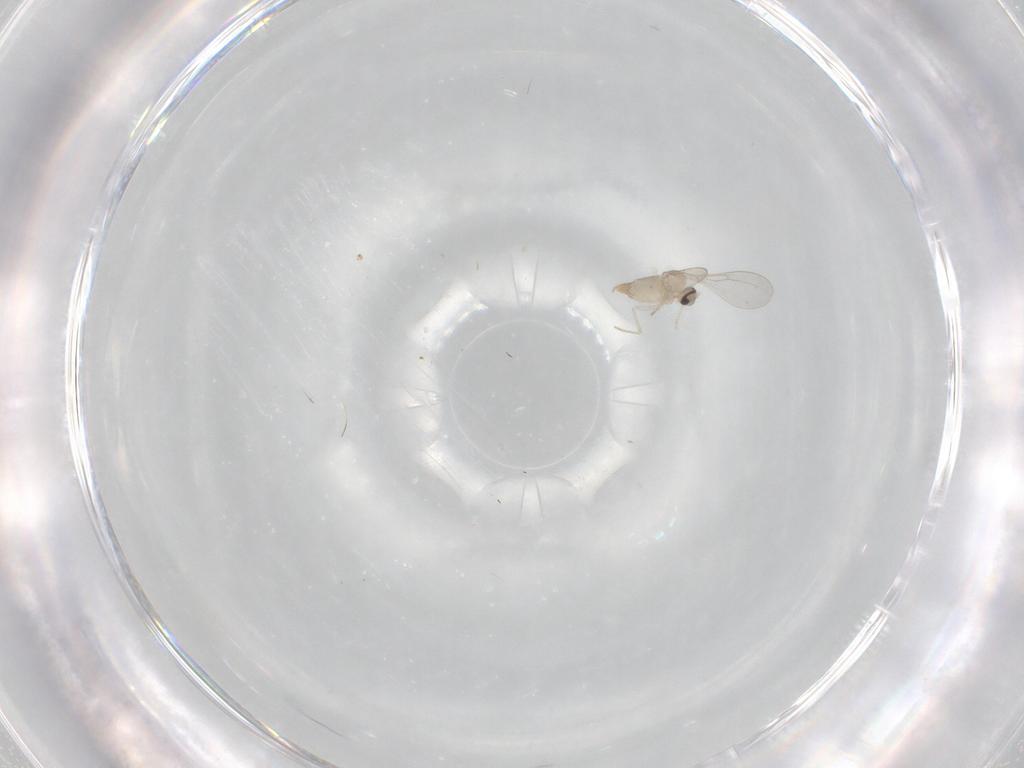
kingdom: Animalia
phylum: Arthropoda
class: Insecta
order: Diptera
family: Cecidomyiidae
